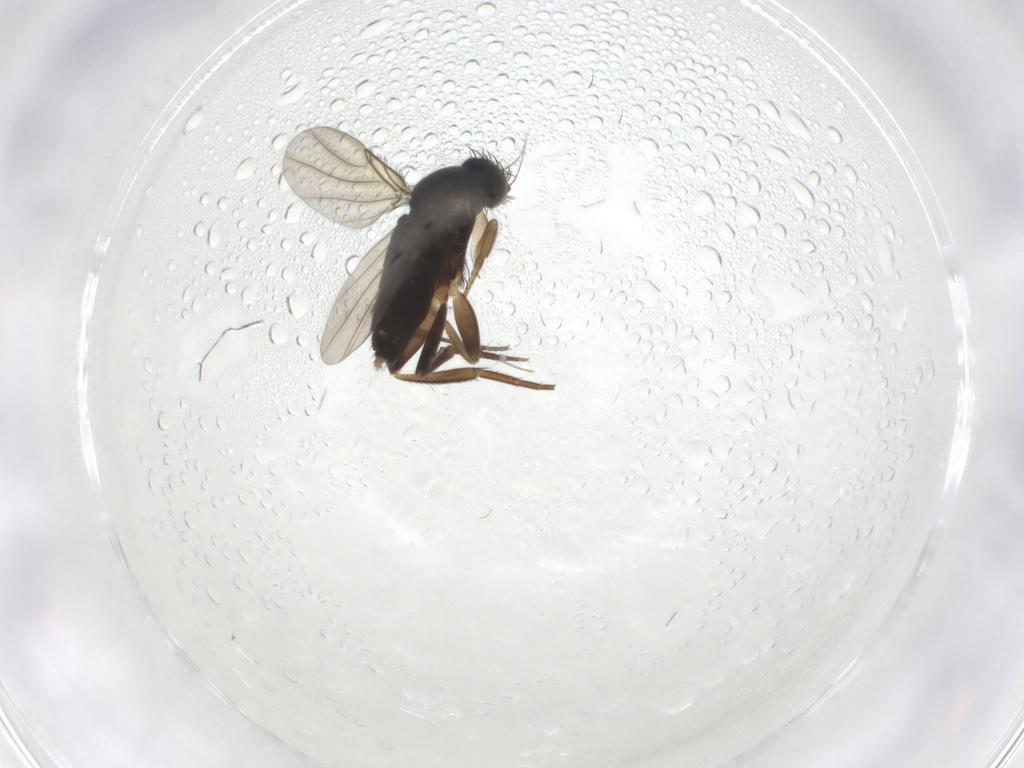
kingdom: Animalia
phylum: Arthropoda
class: Insecta
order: Diptera
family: Phoridae
